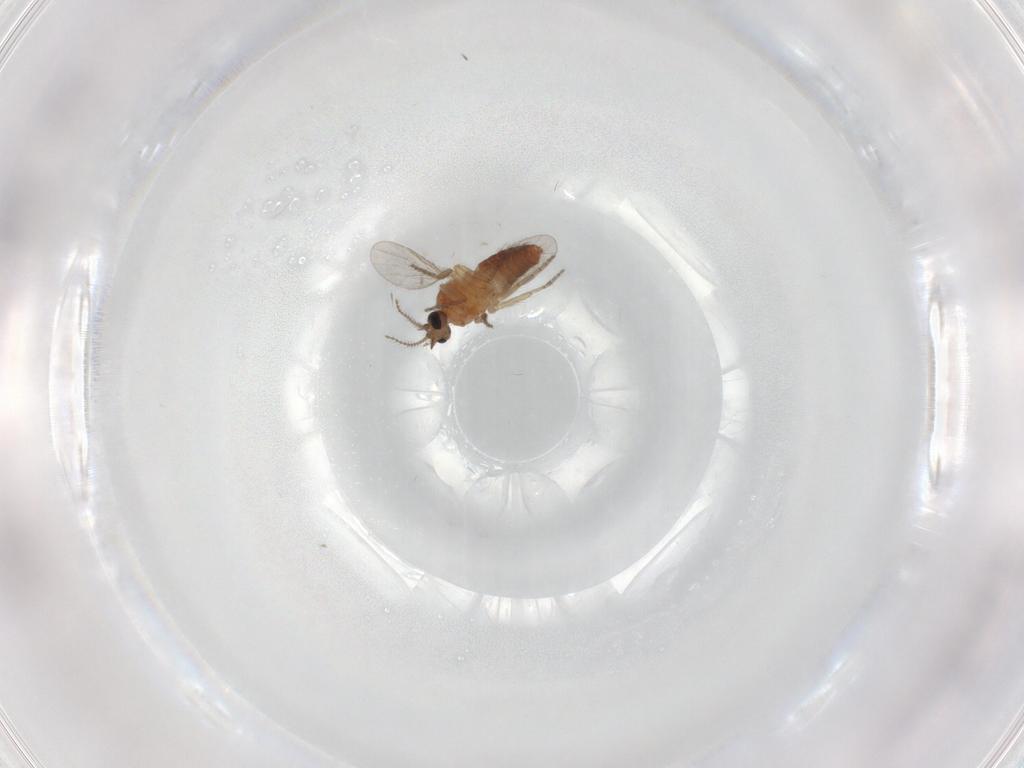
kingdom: Animalia
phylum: Arthropoda
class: Insecta
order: Diptera
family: Ceratopogonidae
